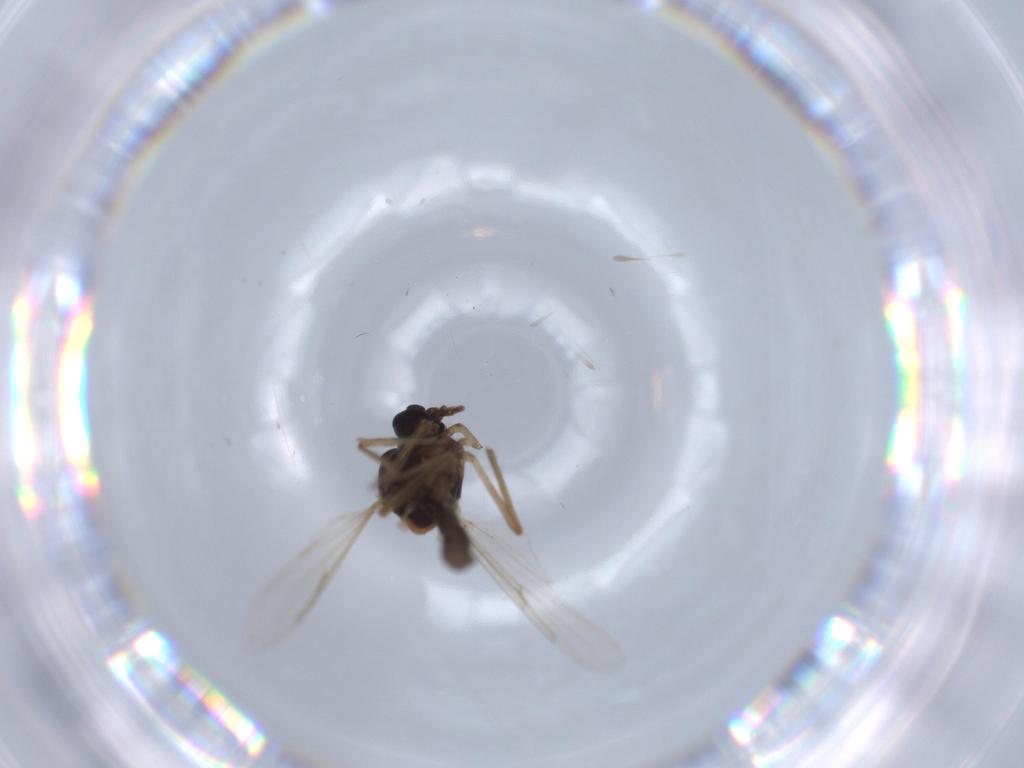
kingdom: Animalia
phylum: Arthropoda
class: Insecta
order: Diptera
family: Ceratopogonidae
